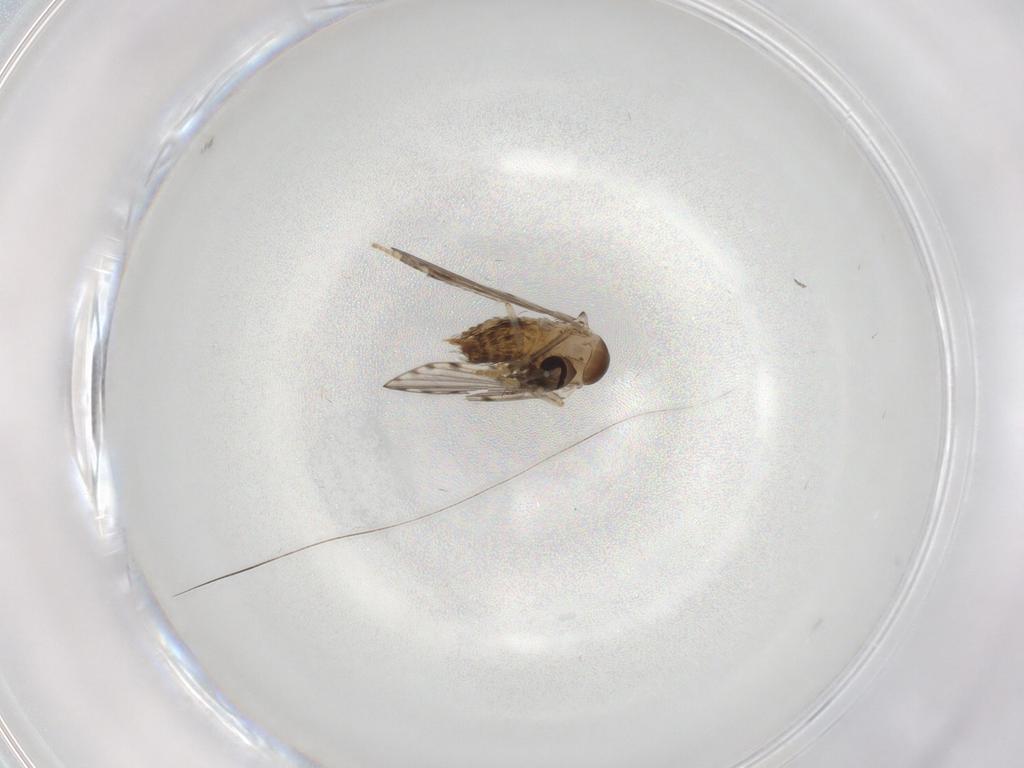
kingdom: Animalia
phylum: Arthropoda
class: Insecta
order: Diptera
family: Psychodidae
